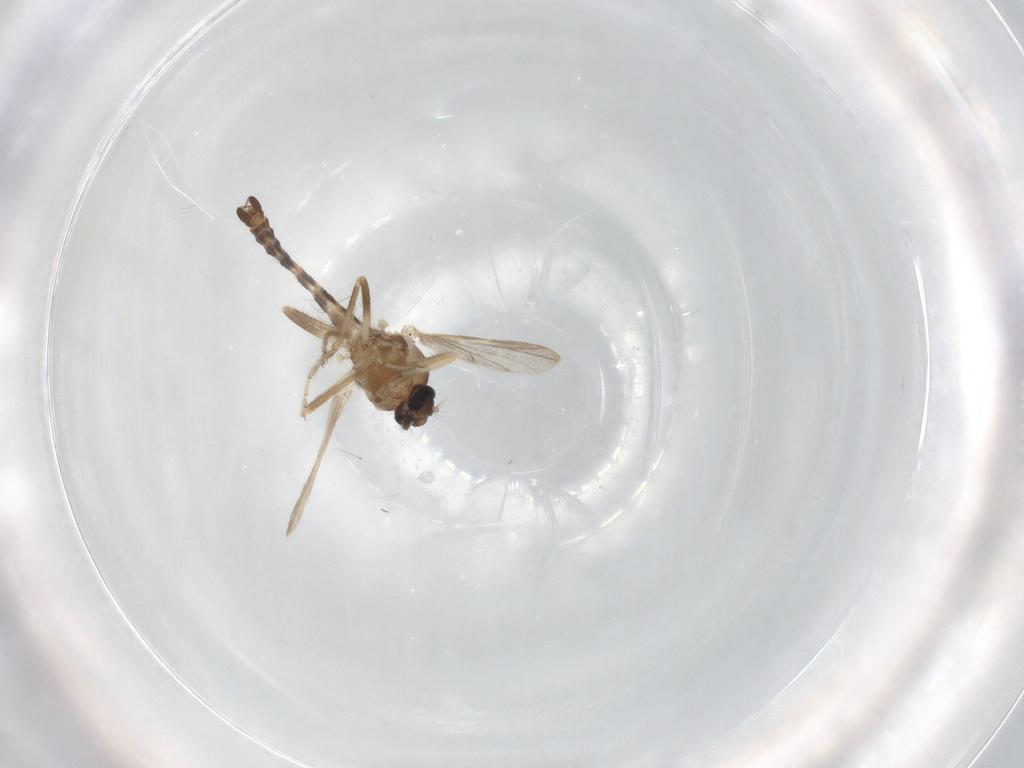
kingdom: Animalia
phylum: Arthropoda
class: Insecta
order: Diptera
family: Ceratopogonidae
